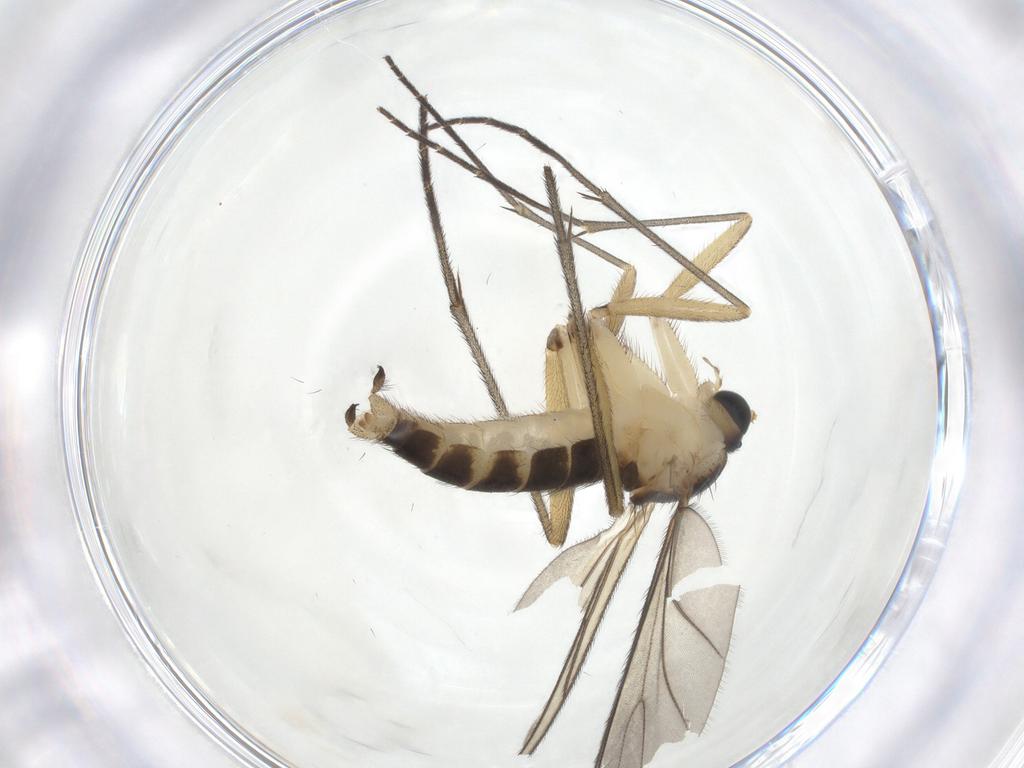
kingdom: Animalia
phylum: Arthropoda
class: Insecta
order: Diptera
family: Sciaridae
